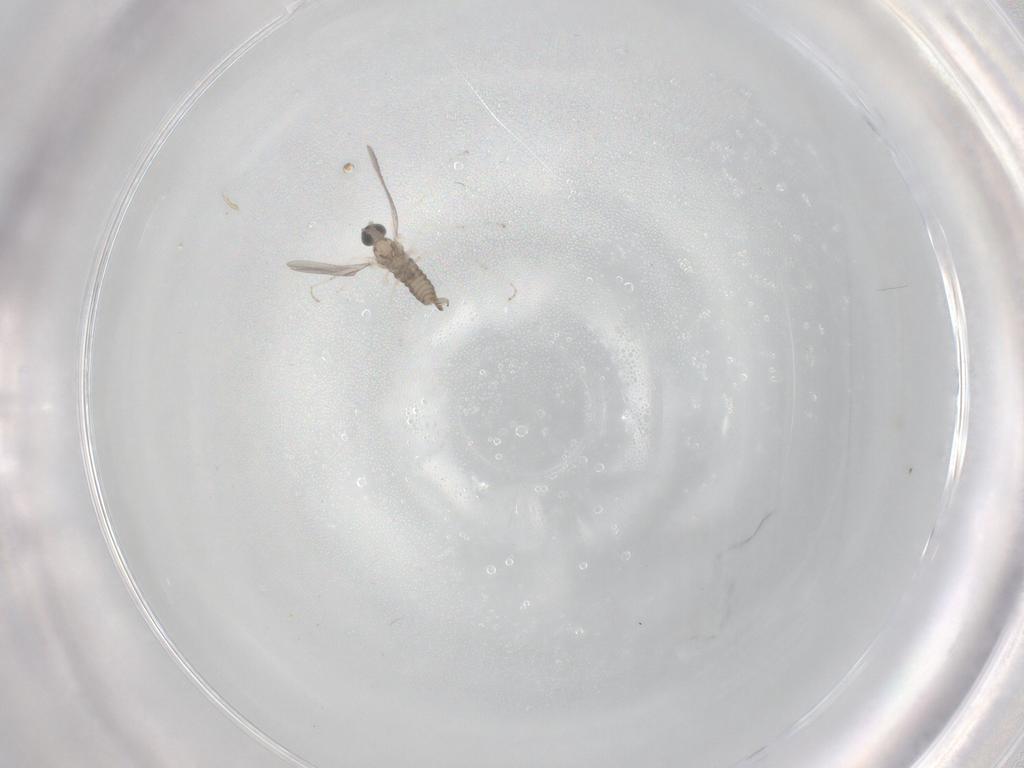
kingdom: Animalia
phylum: Arthropoda
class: Insecta
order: Diptera
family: Cecidomyiidae
